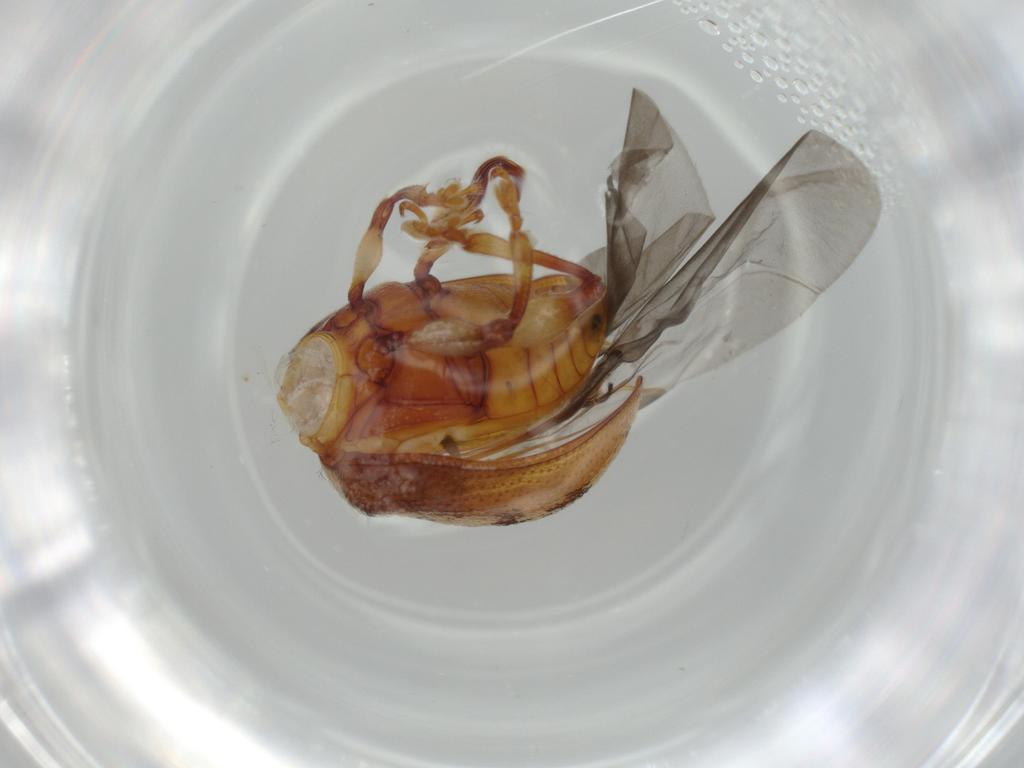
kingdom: Animalia
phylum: Arthropoda
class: Insecta
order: Coleoptera
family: Chrysomelidae
